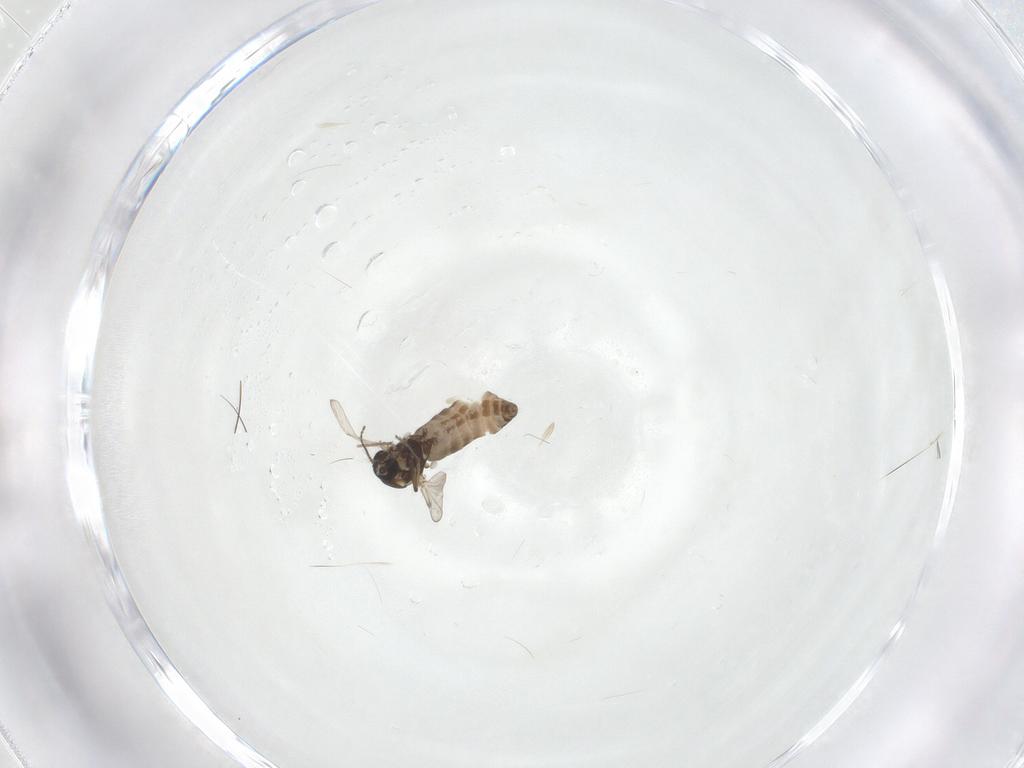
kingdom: Animalia
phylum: Arthropoda
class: Insecta
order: Diptera
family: Ceratopogonidae
